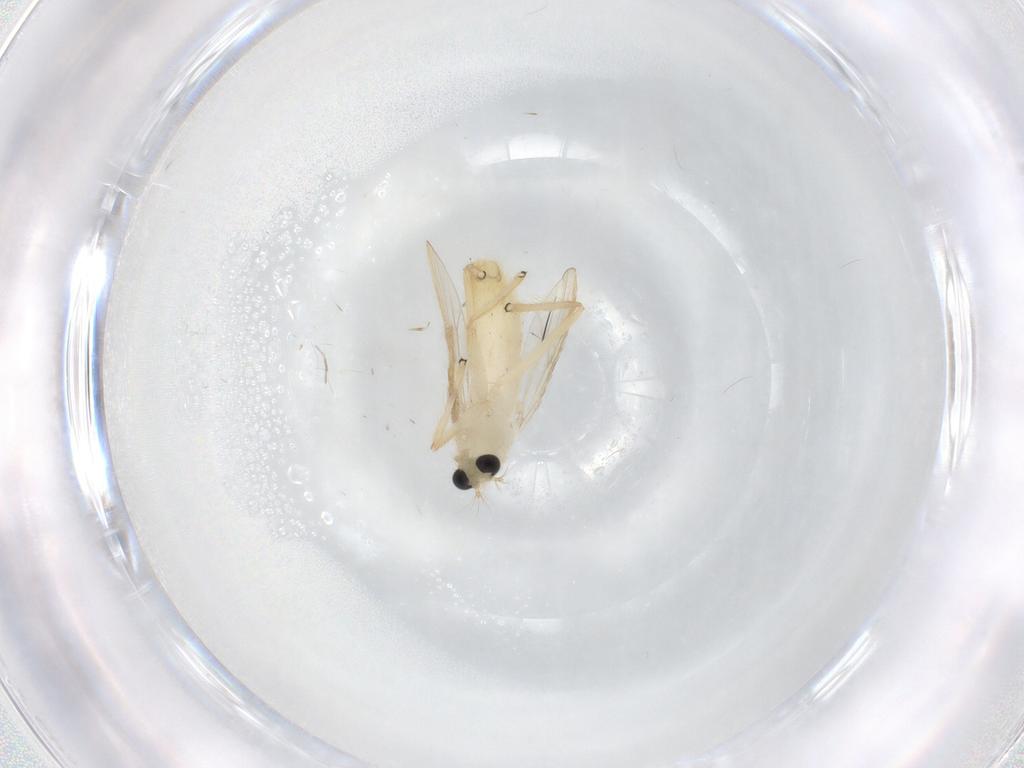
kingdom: Animalia
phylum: Arthropoda
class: Insecta
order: Diptera
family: Chironomidae
